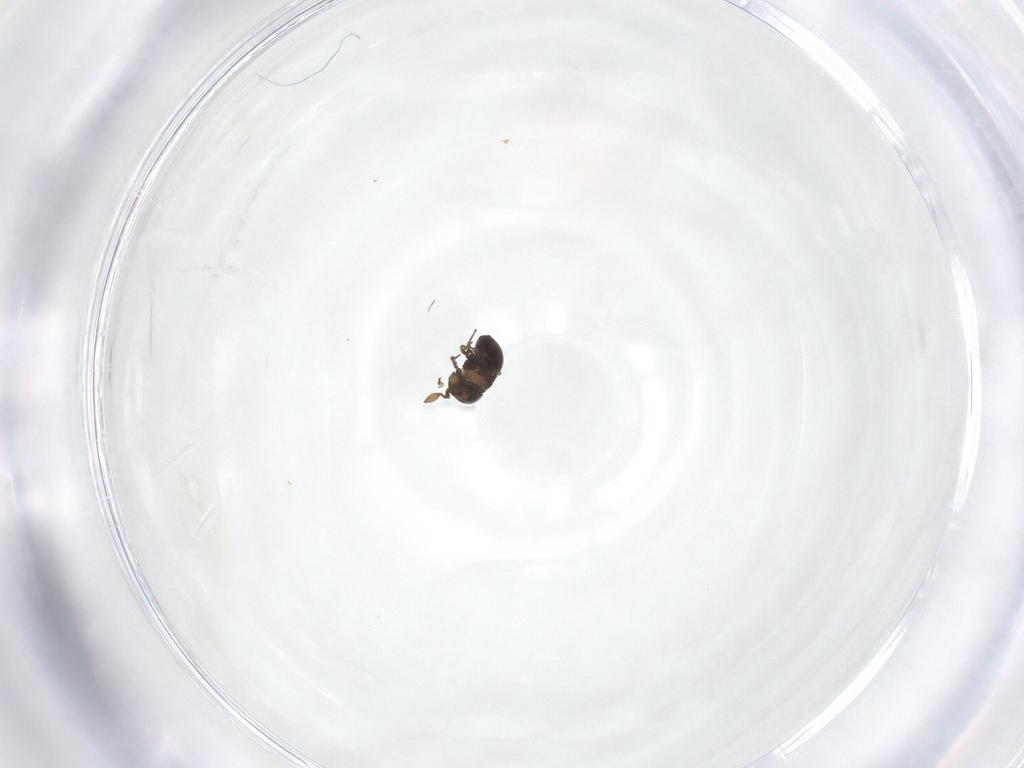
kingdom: Animalia
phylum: Arthropoda
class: Insecta
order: Hymenoptera
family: Scelionidae
